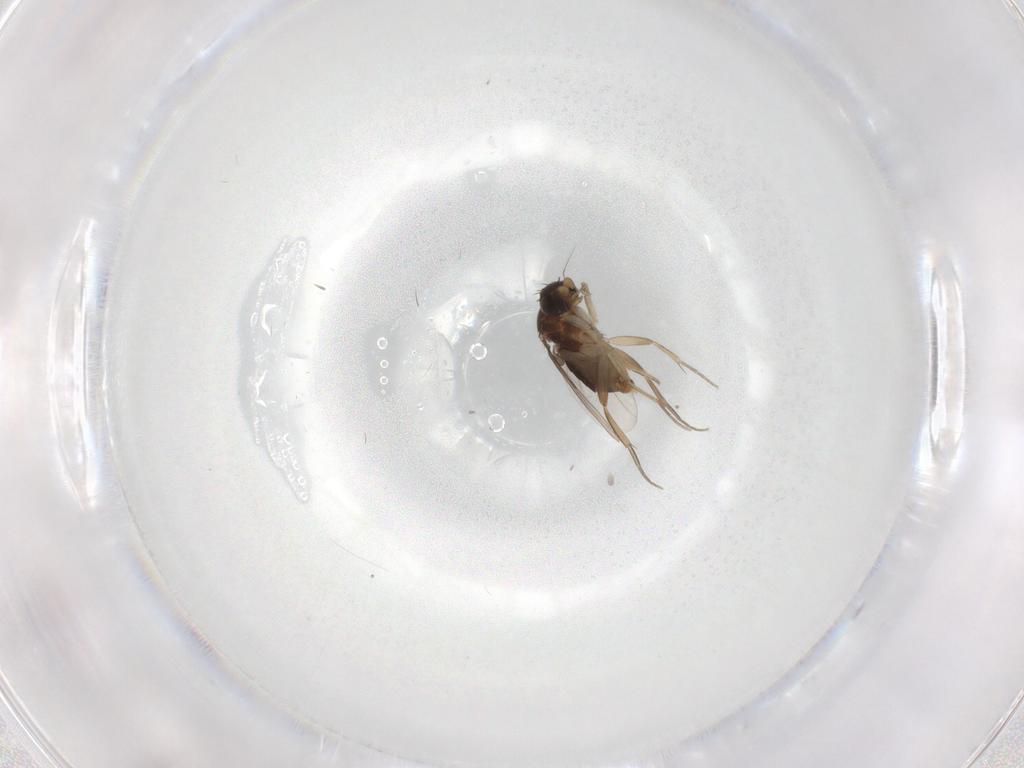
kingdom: Animalia
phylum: Arthropoda
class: Insecta
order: Diptera
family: Phoridae
